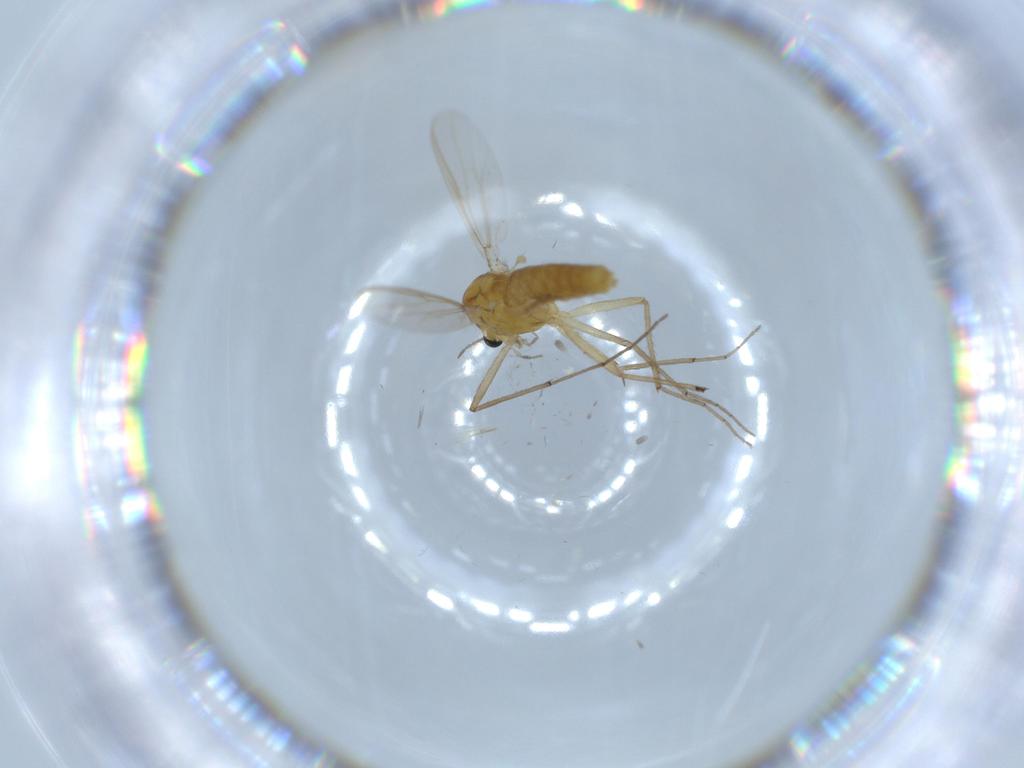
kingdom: Animalia
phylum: Arthropoda
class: Insecta
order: Diptera
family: Chironomidae
